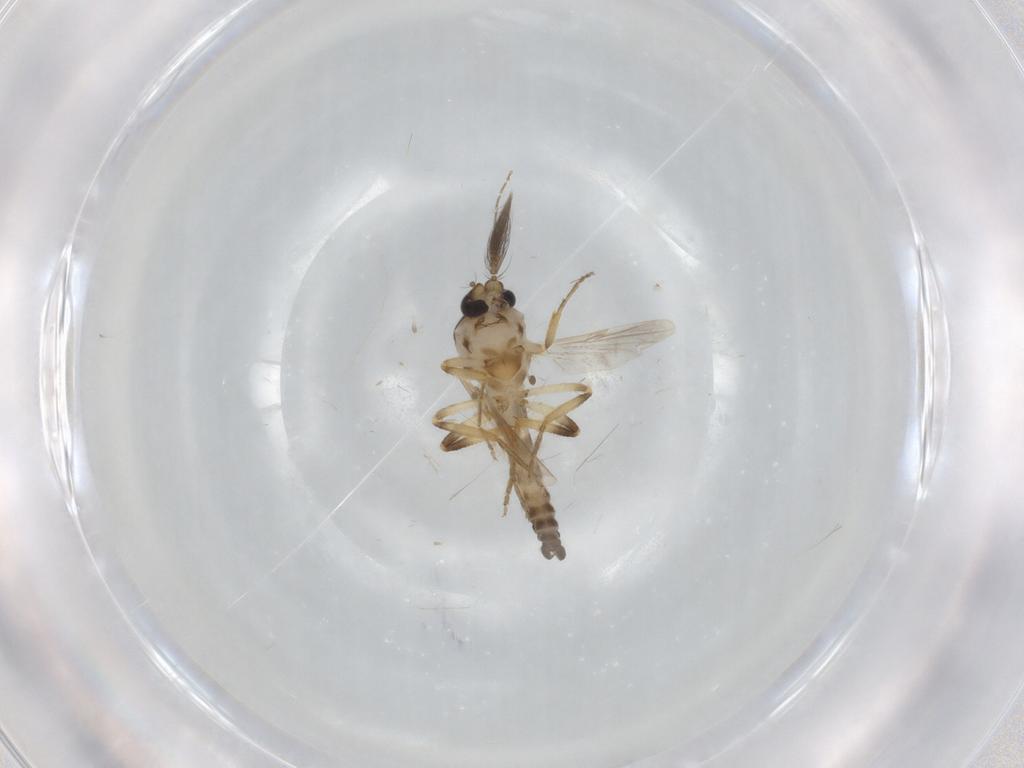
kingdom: Animalia
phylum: Arthropoda
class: Insecta
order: Diptera
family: Ceratopogonidae
